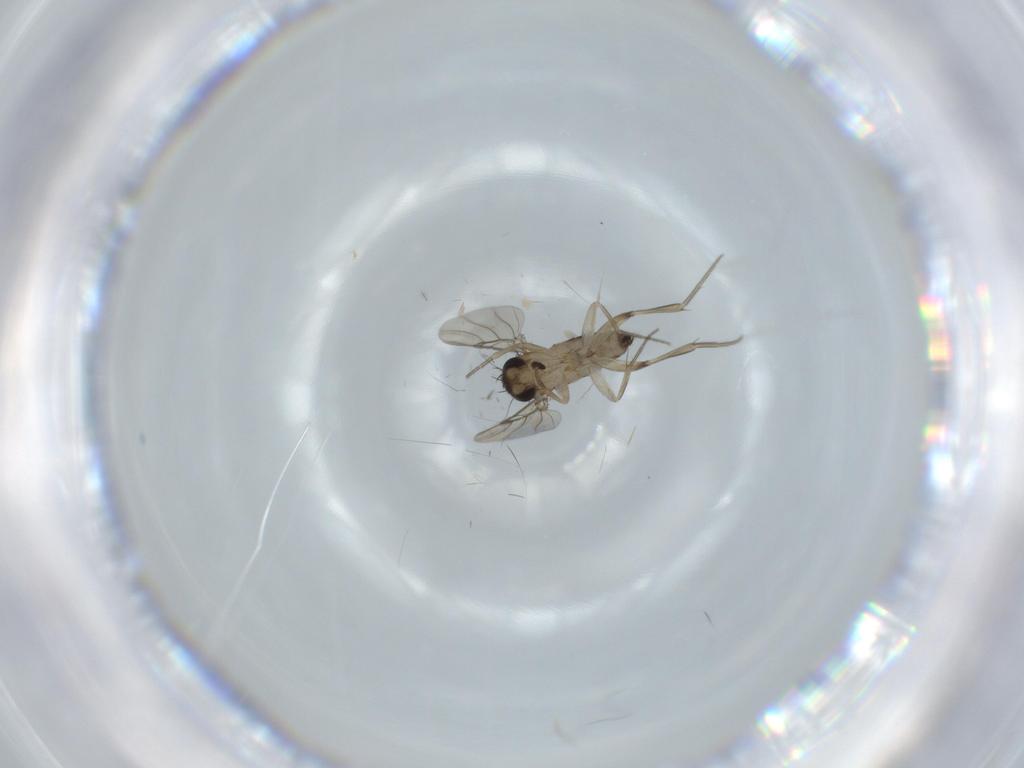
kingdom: Animalia
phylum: Arthropoda
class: Insecta
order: Diptera
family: Phoridae
